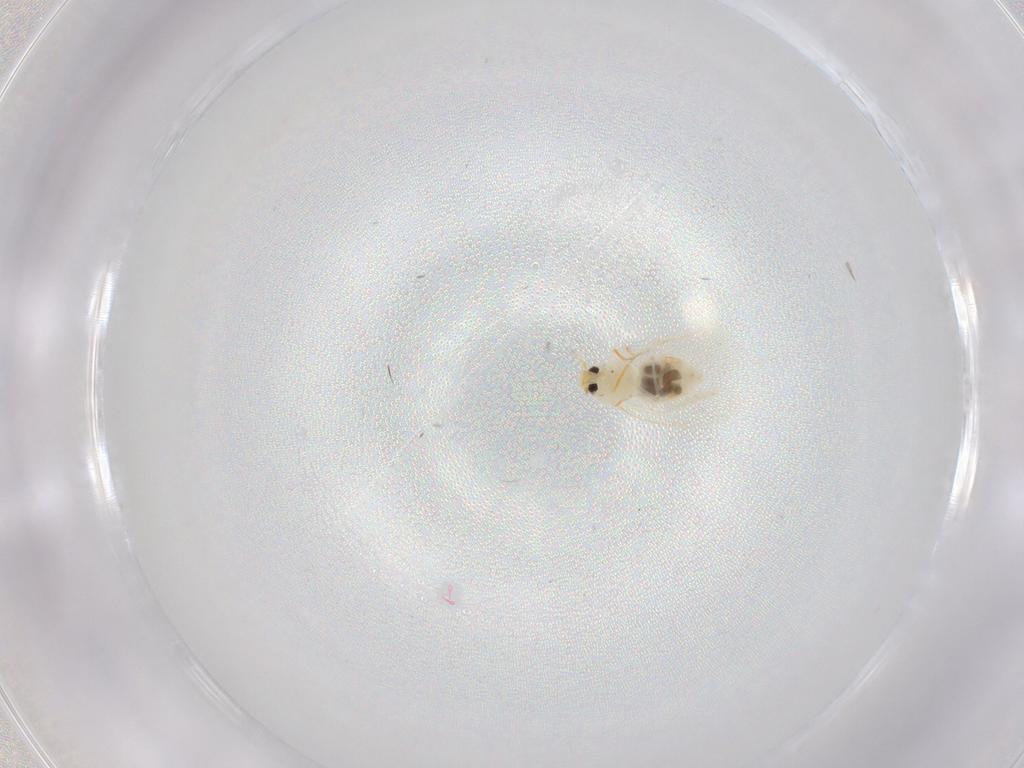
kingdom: Animalia
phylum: Arthropoda
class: Insecta
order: Hemiptera
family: Aleyrodidae
